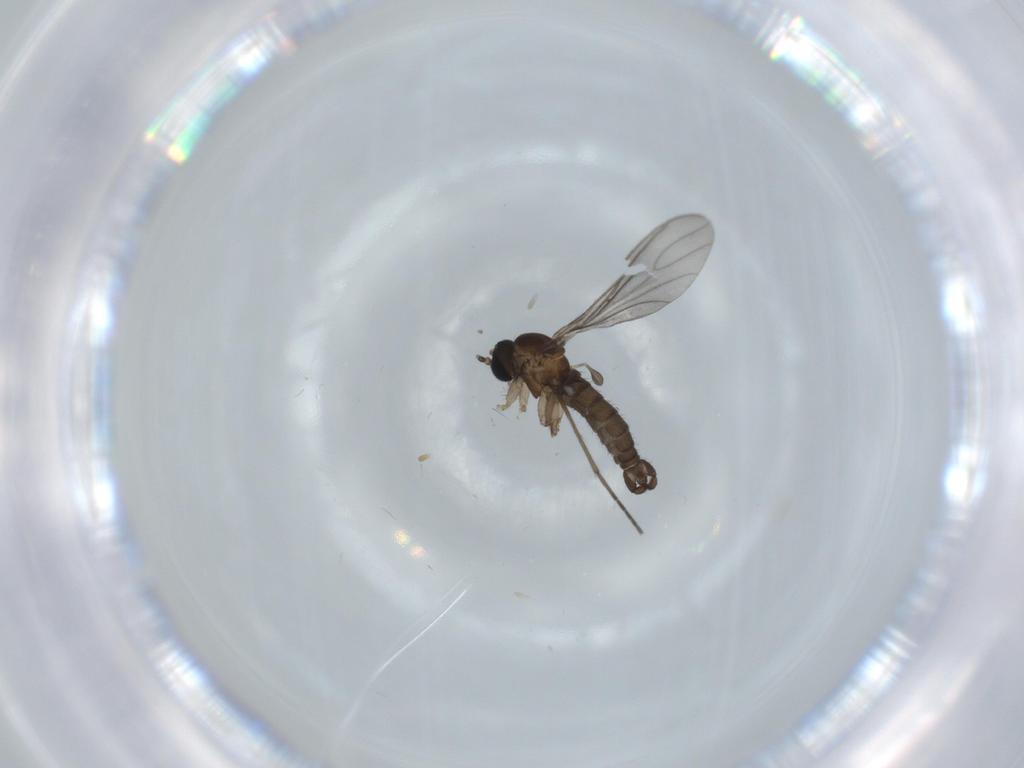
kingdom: Animalia
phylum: Arthropoda
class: Insecta
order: Diptera
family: Sciaridae
